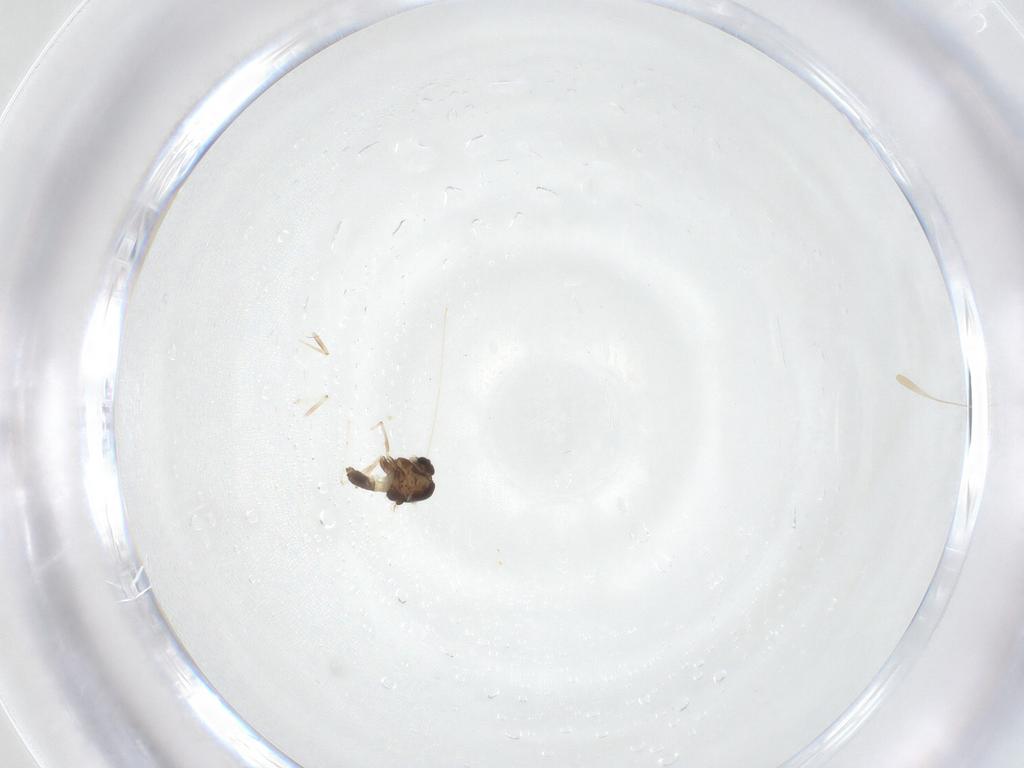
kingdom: Animalia
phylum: Arthropoda
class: Insecta
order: Diptera
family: Chironomidae
